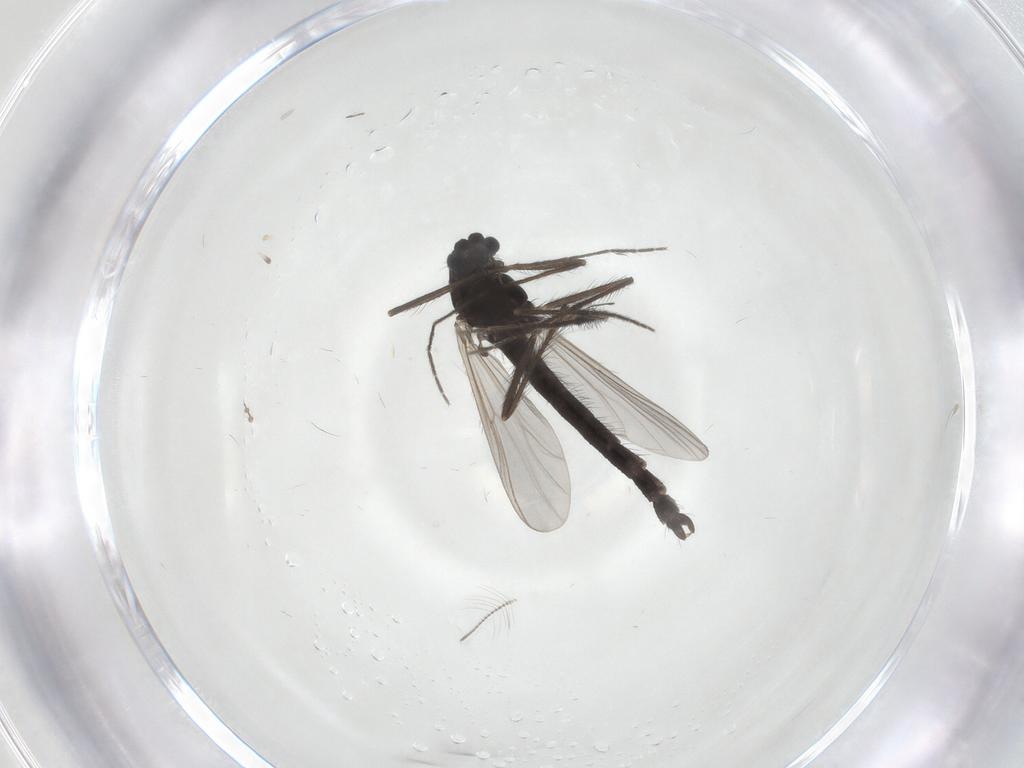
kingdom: Animalia
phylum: Arthropoda
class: Insecta
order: Diptera
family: Chironomidae
